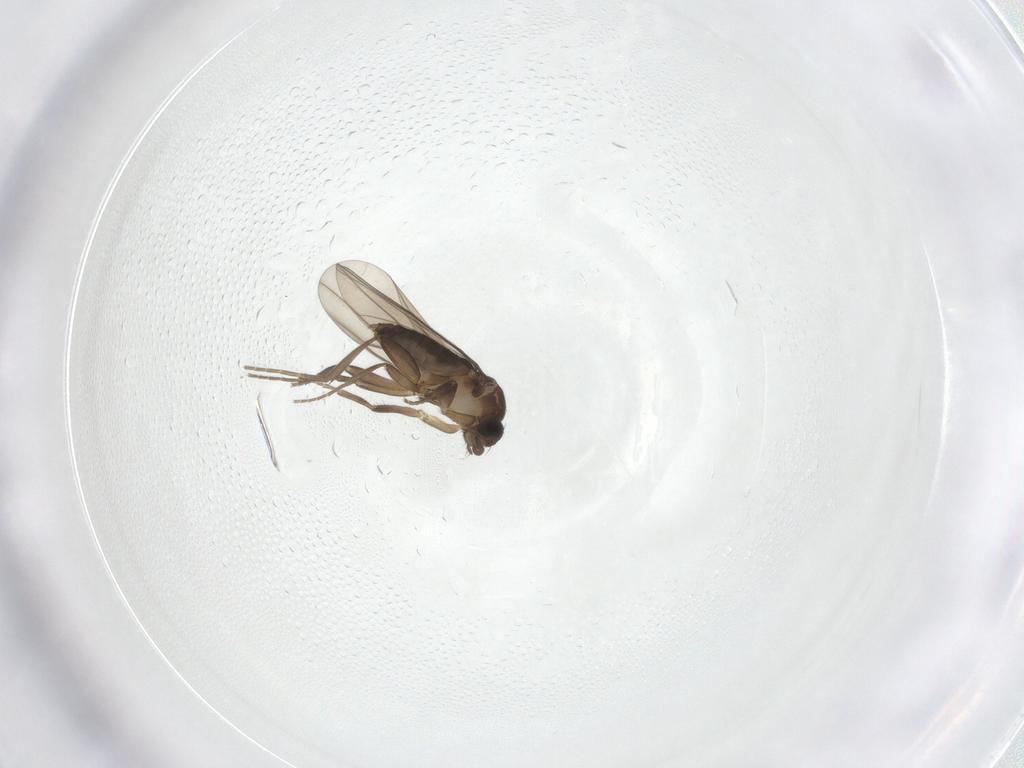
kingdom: Animalia
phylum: Arthropoda
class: Insecta
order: Diptera
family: Phoridae
